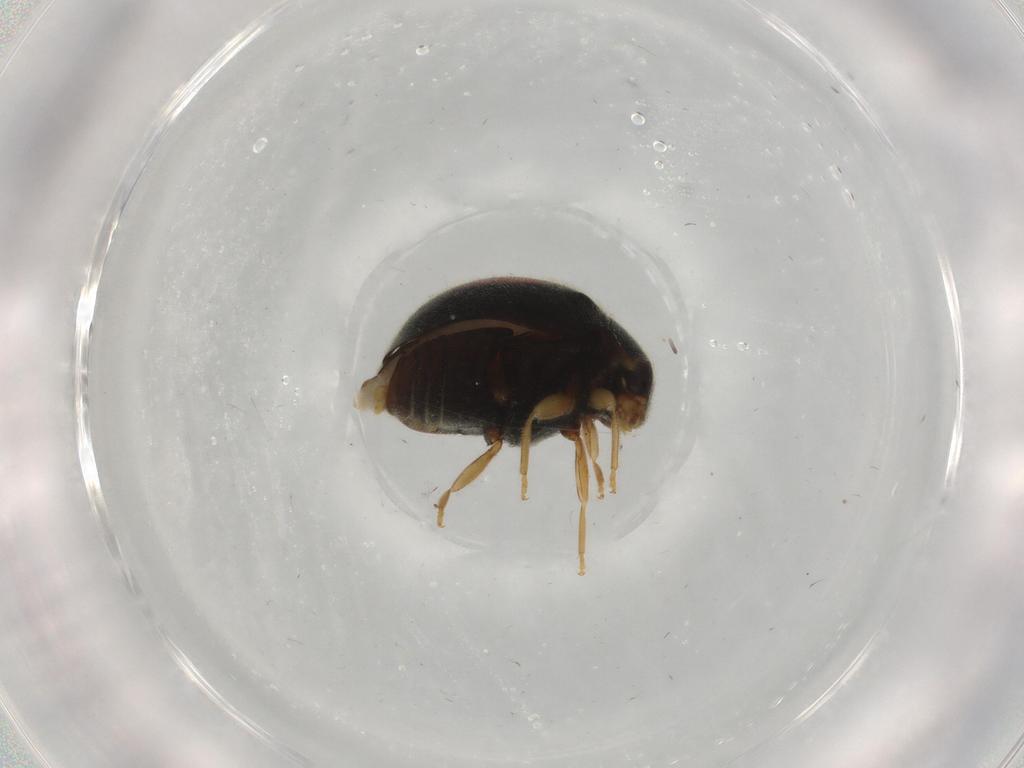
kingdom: Animalia
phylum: Arthropoda
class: Insecta
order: Coleoptera
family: Coccinellidae
